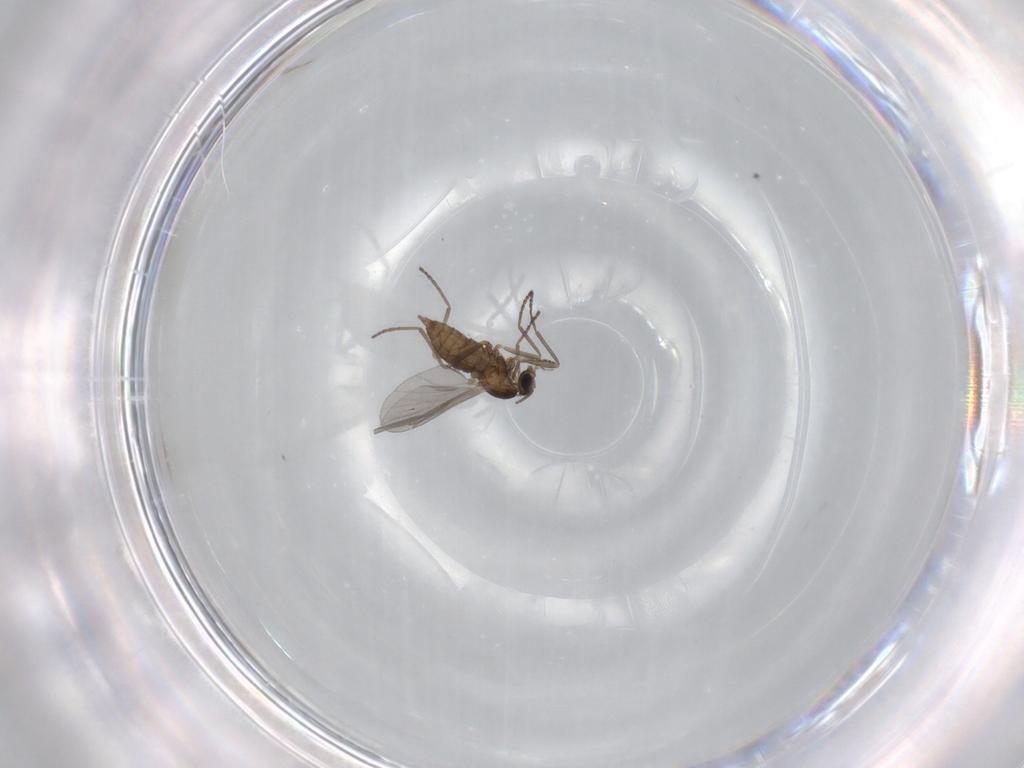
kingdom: Animalia
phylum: Arthropoda
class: Insecta
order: Diptera
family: Cecidomyiidae
